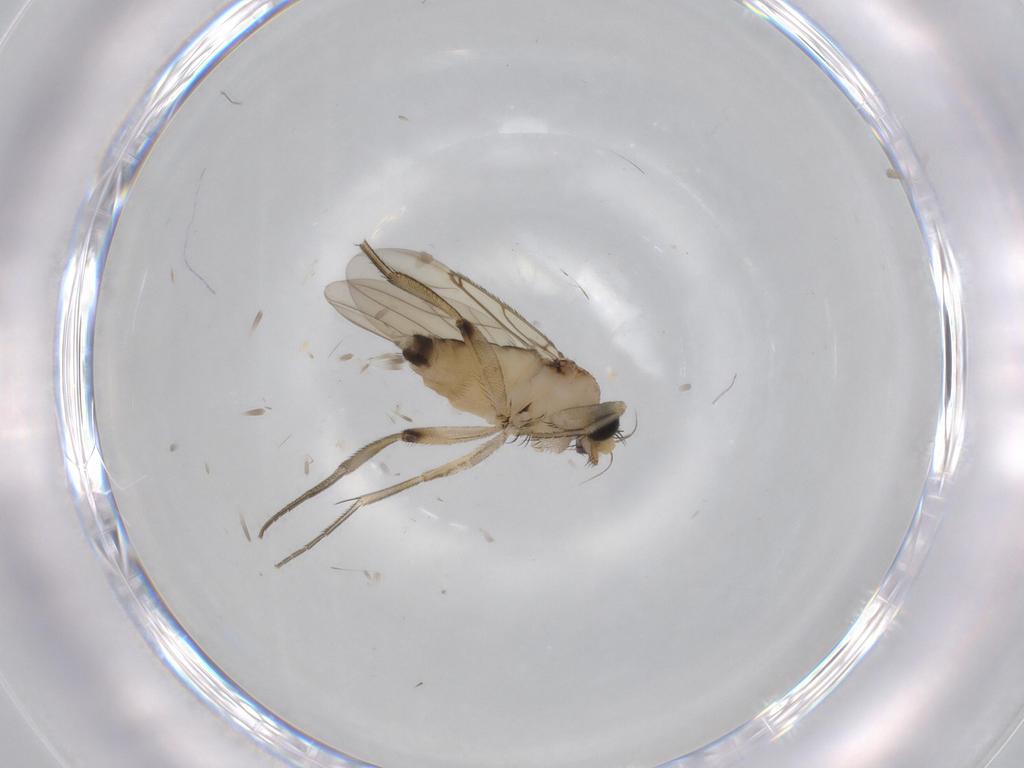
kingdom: Animalia
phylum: Arthropoda
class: Insecta
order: Diptera
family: Phoridae
